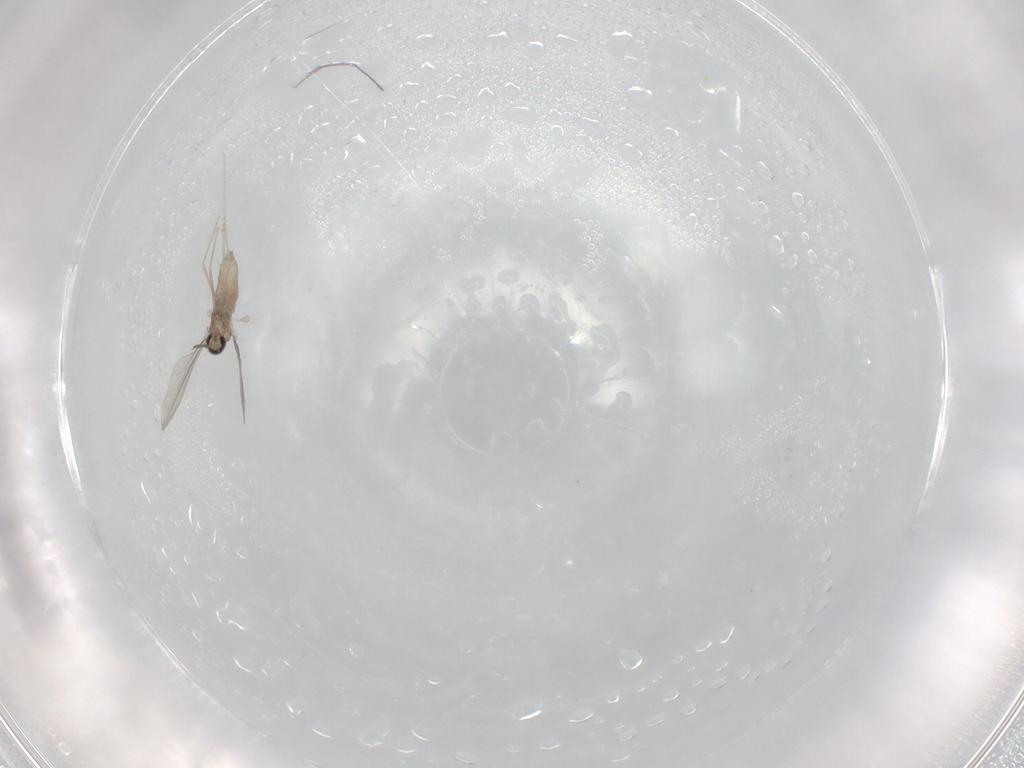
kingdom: Animalia
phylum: Arthropoda
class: Insecta
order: Diptera
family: Cecidomyiidae
